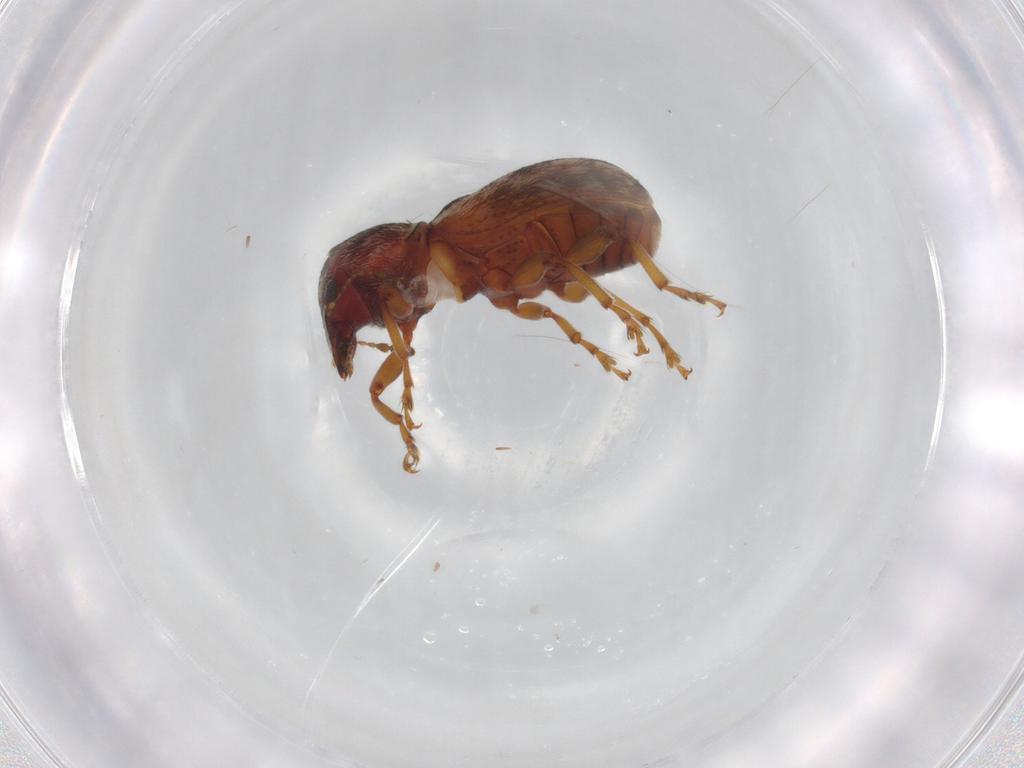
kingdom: Animalia
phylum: Arthropoda
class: Insecta
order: Coleoptera
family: Anthribidae
